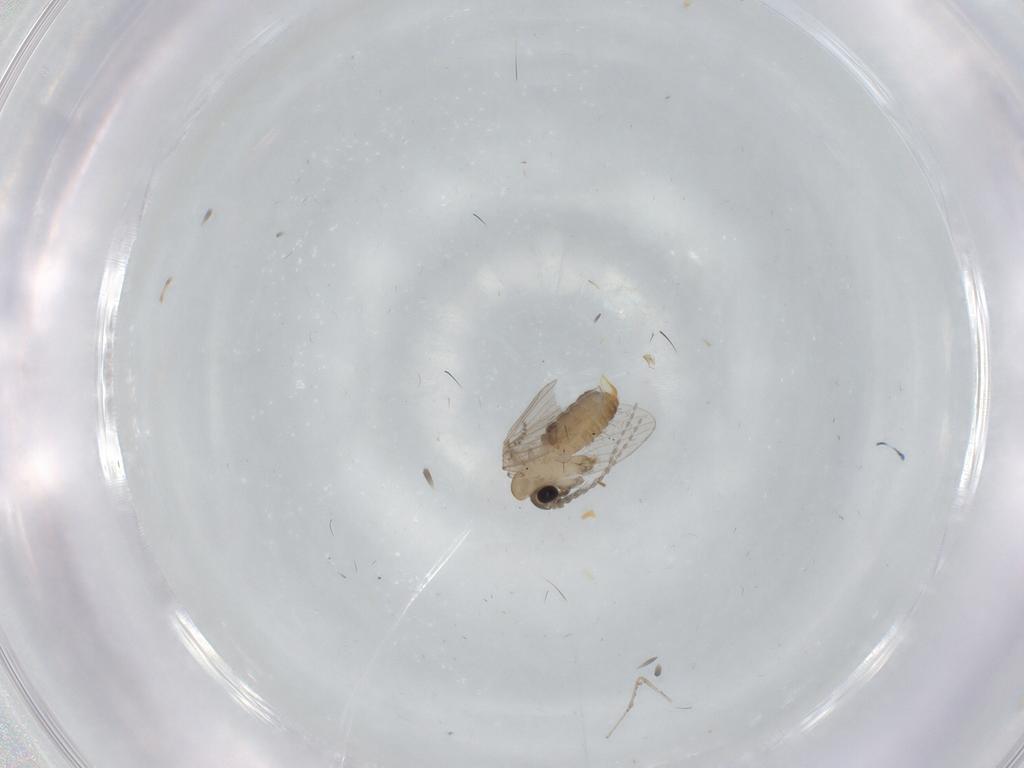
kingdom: Animalia
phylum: Arthropoda
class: Insecta
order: Diptera
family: Psychodidae
